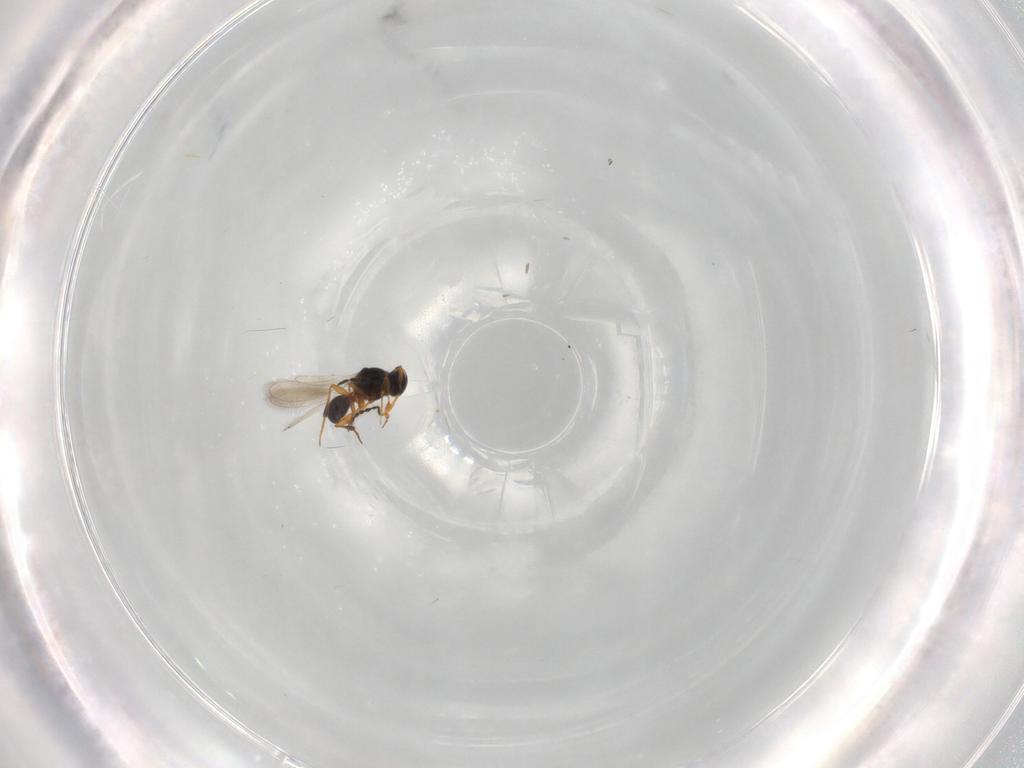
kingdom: Animalia
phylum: Arthropoda
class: Insecta
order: Hymenoptera
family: Platygastridae
